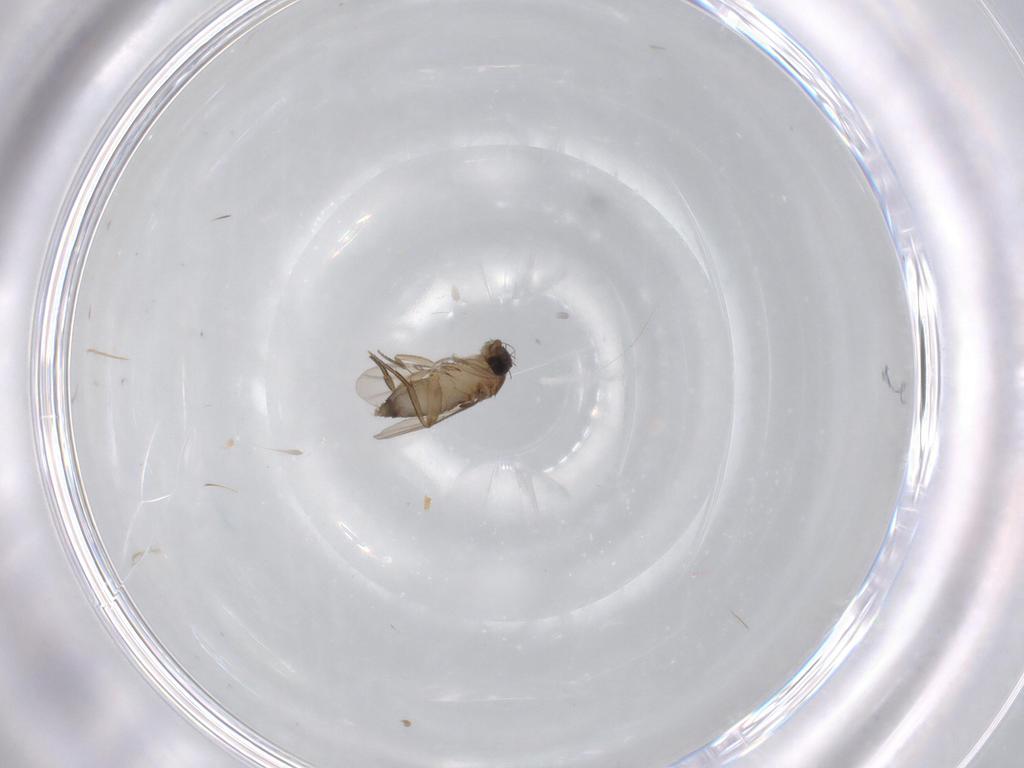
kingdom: Animalia
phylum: Arthropoda
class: Insecta
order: Diptera
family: Phoridae
